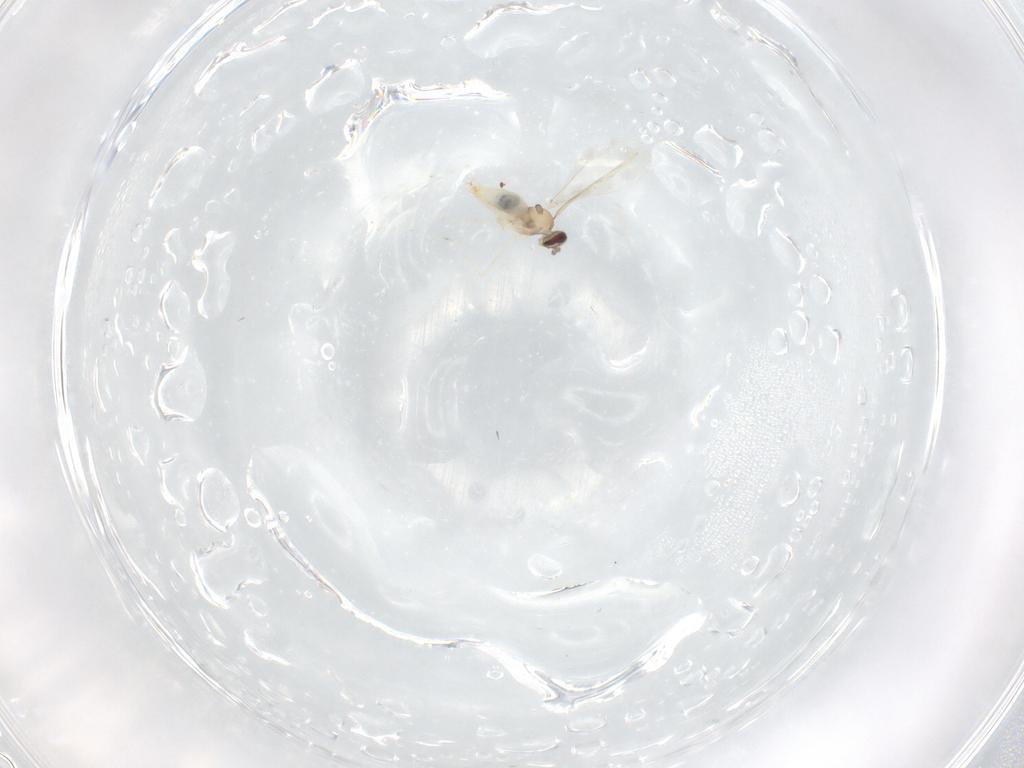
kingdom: Animalia
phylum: Arthropoda
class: Insecta
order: Diptera
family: Cecidomyiidae
